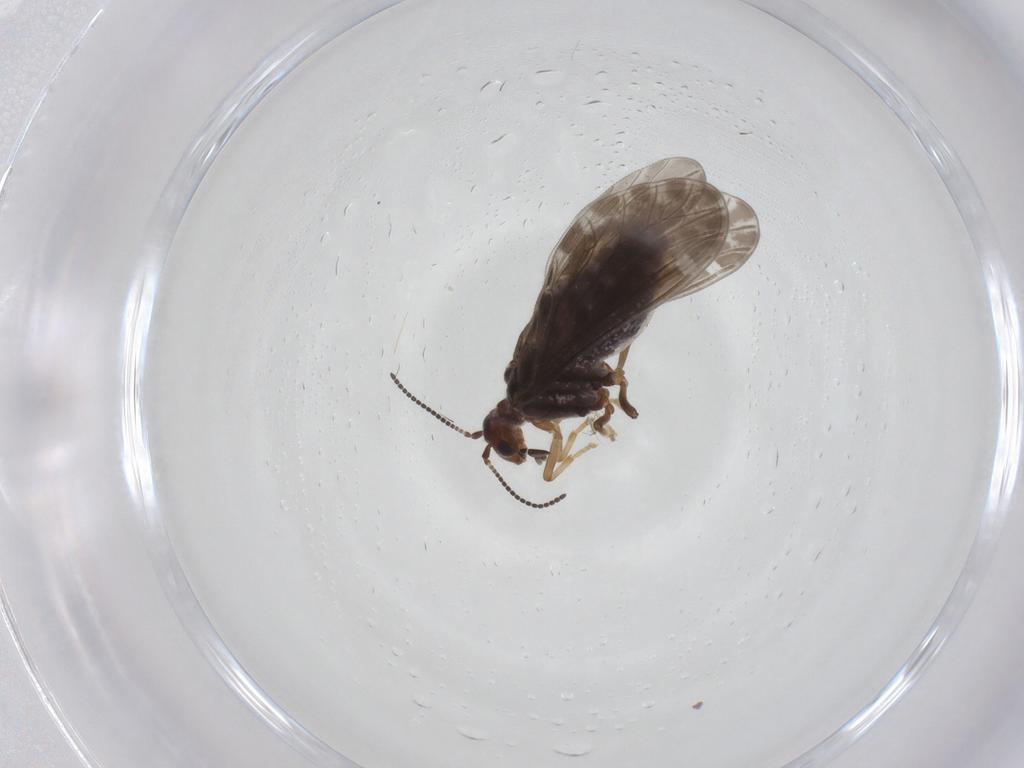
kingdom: Animalia
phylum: Arthropoda
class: Insecta
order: Neuroptera
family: Coniopterygidae
